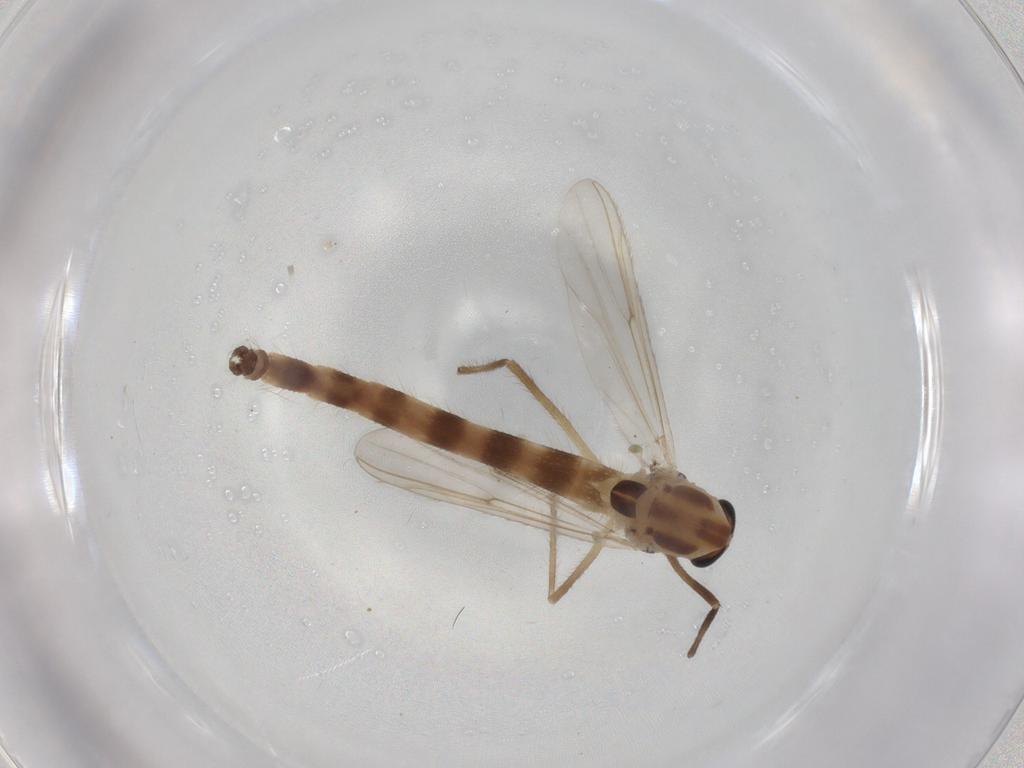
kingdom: Animalia
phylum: Arthropoda
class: Insecta
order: Diptera
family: Chironomidae
